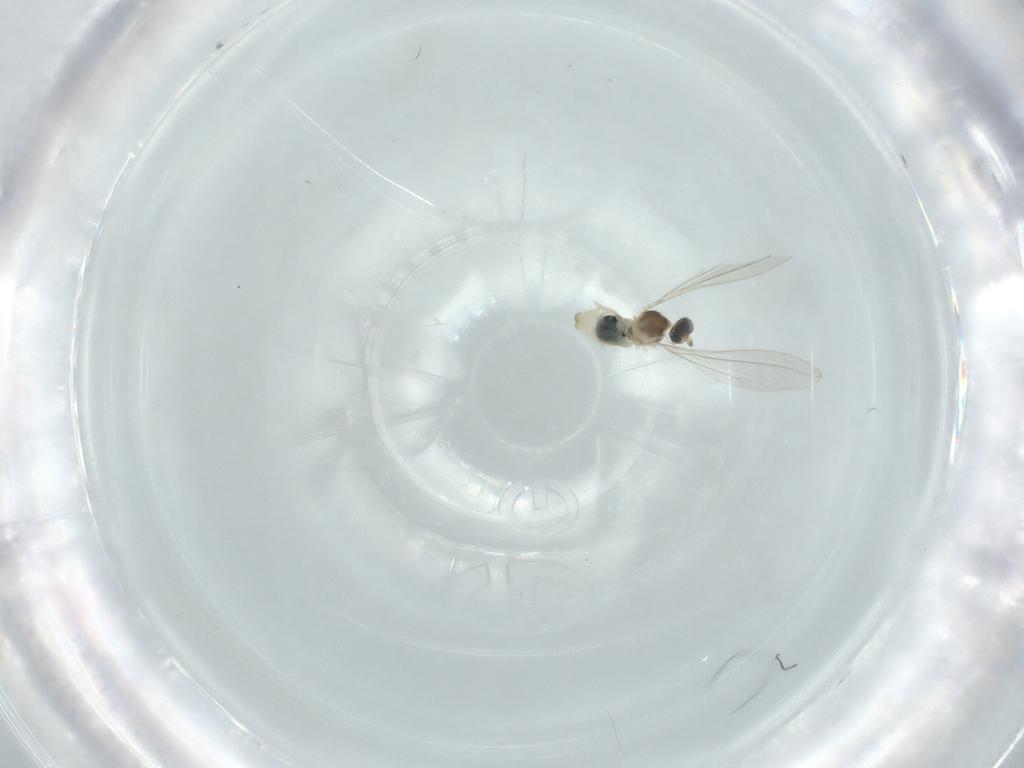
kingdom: Animalia
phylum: Arthropoda
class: Insecta
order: Diptera
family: Cecidomyiidae
